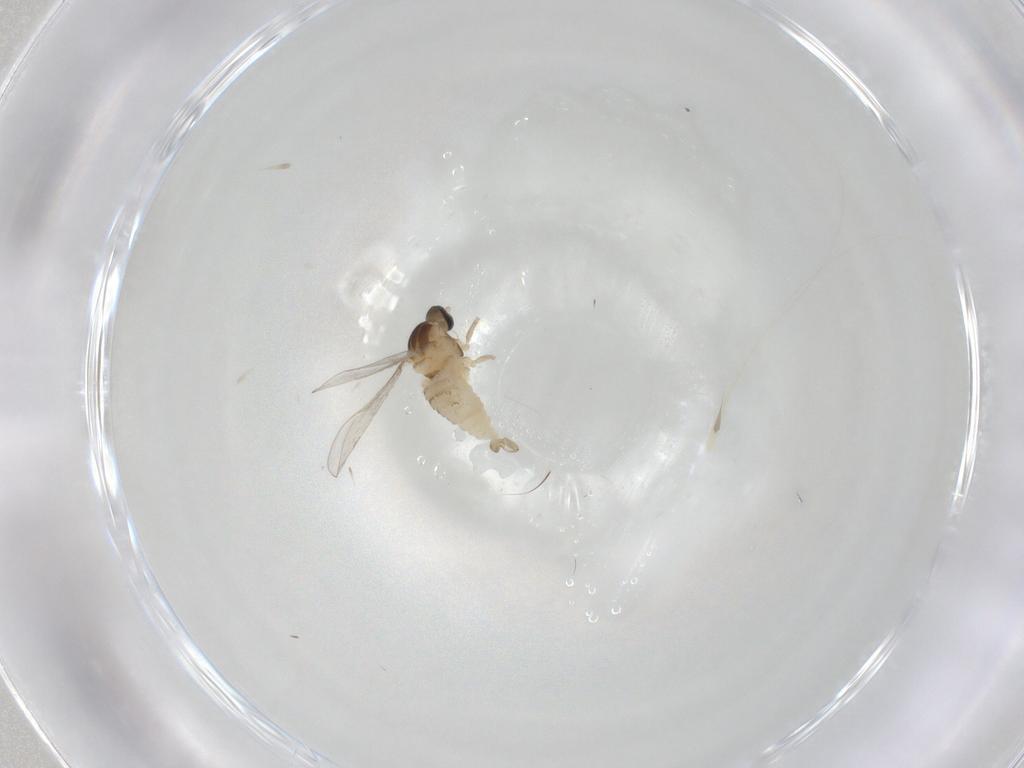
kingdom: Animalia
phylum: Arthropoda
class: Insecta
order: Diptera
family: Cecidomyiidae
